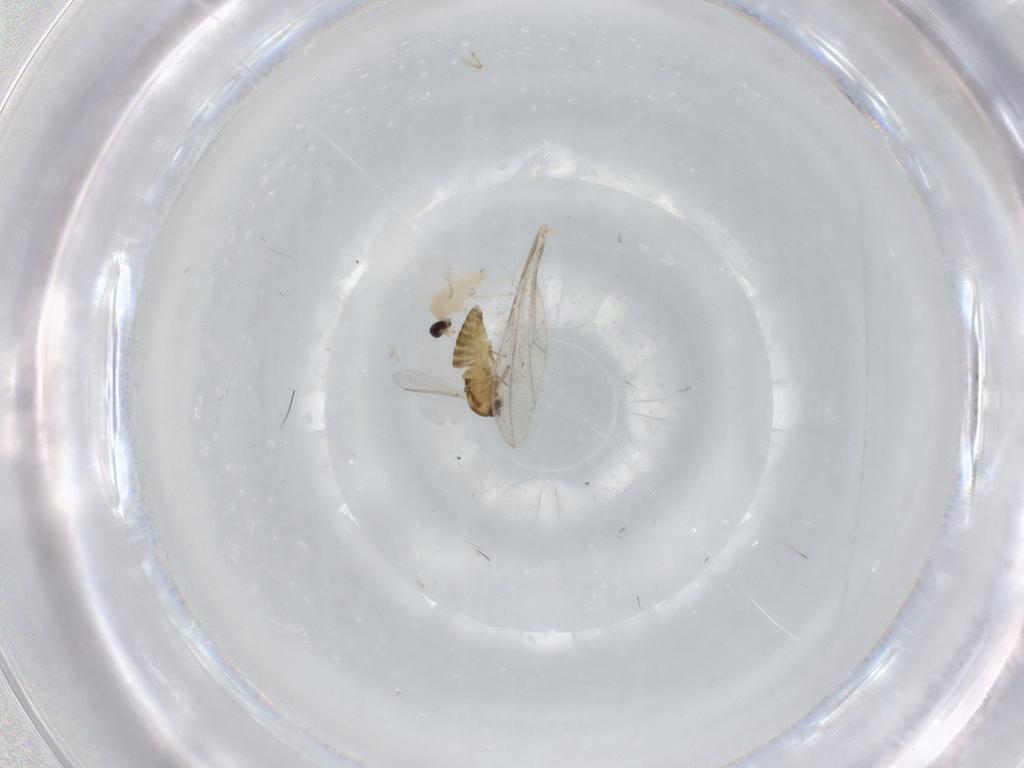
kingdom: Animalia
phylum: Arthropoda
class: Insecta
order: Diptera
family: Cecidomyiidae
